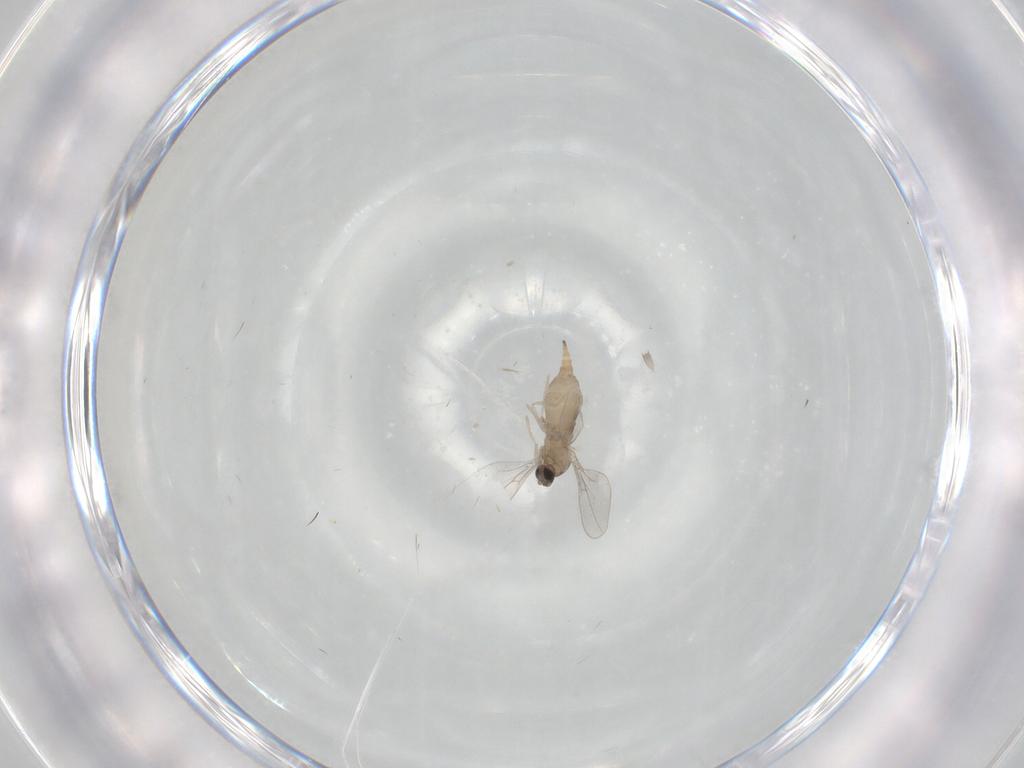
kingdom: Animalia
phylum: Arthropoda
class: Insecta
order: Diptera
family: Cecidomyiidae
